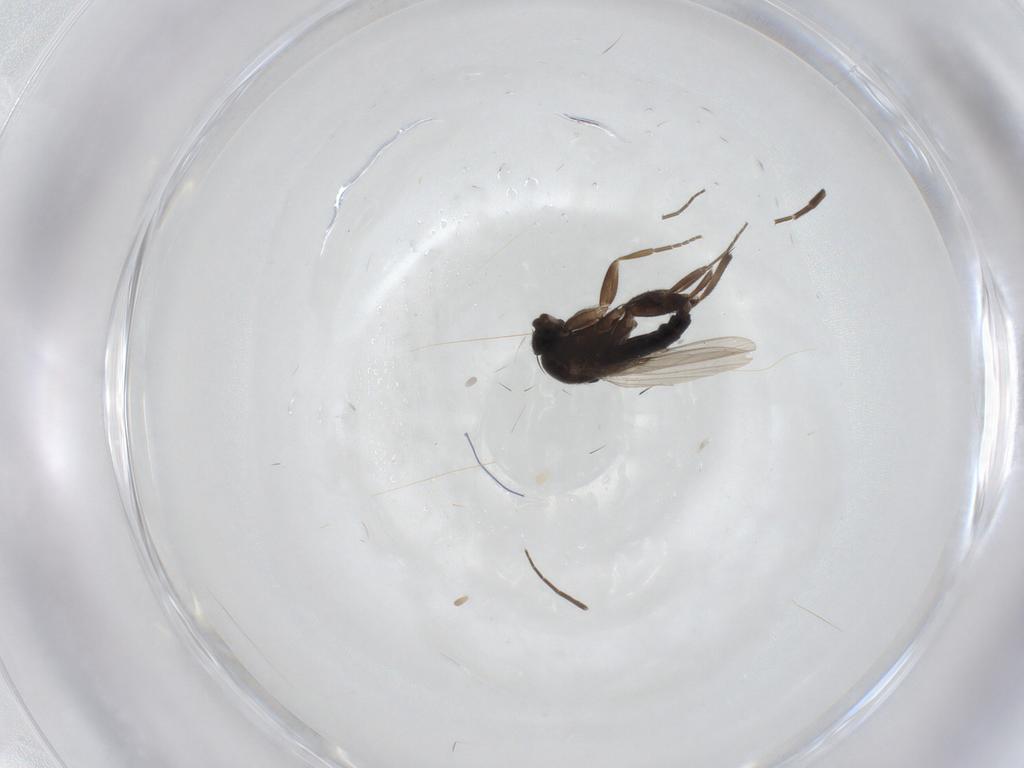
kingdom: Animalia
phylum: Arthropoda
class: Insecta
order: Diptera
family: Phoridae
